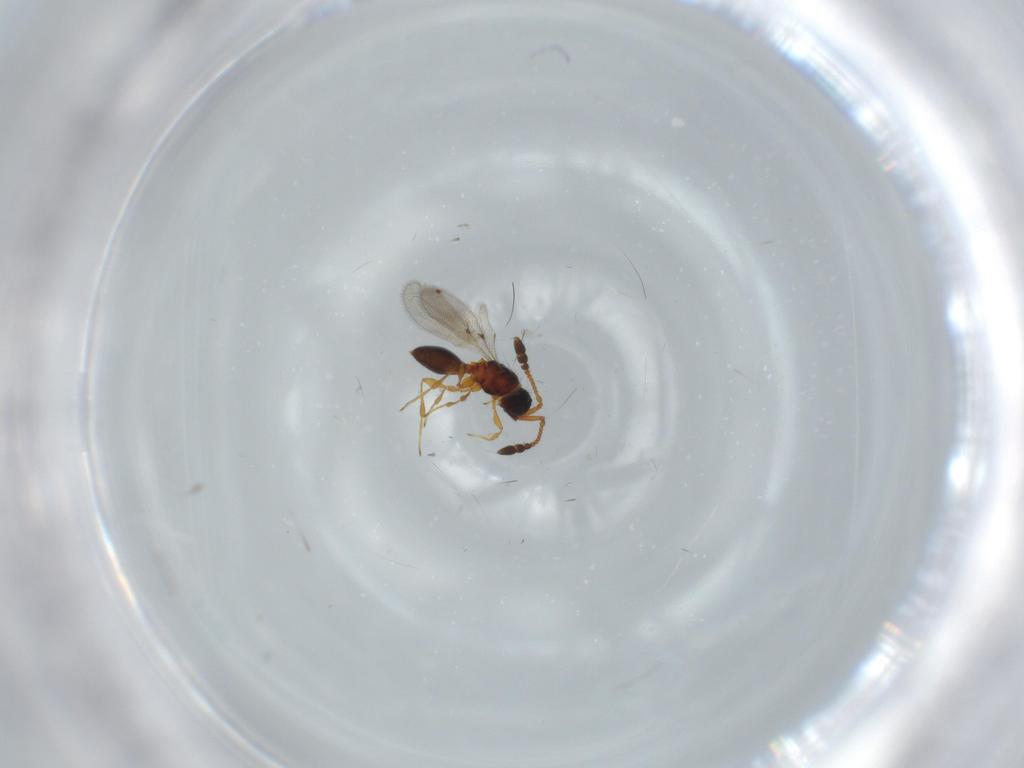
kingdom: Animalia
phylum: Arthropoda
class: Insecta
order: Hymenoptera
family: Diapriidae
